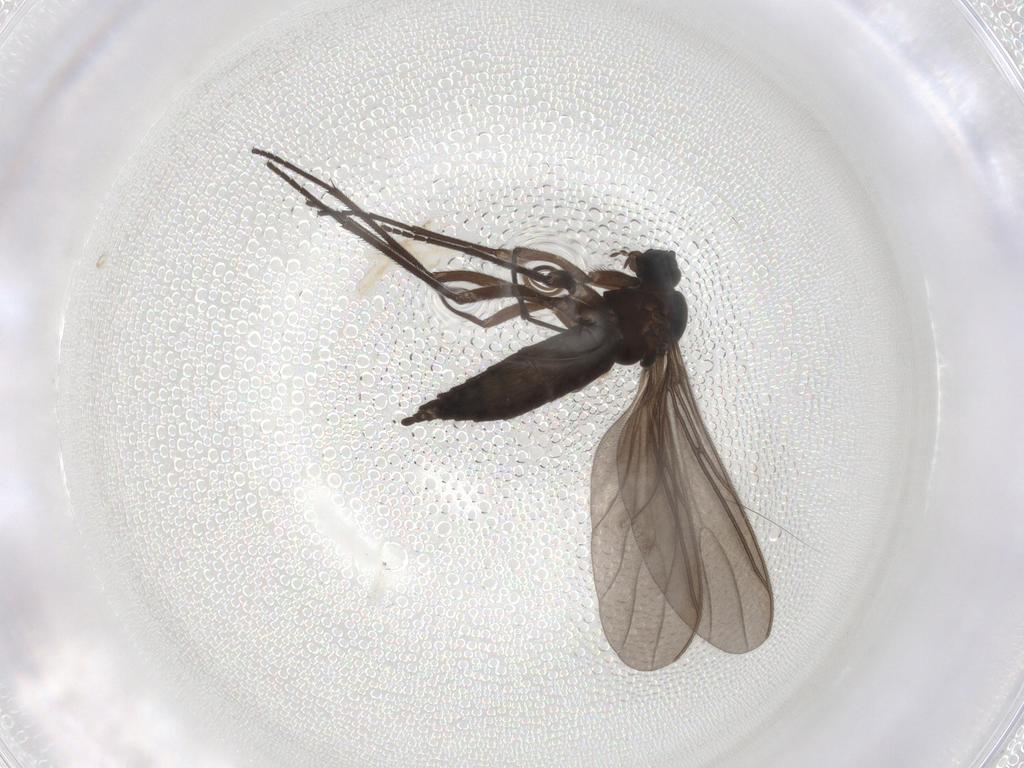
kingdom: Animalia
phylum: Arthropoda
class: Insecta
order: Diptera
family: Sciaridae
